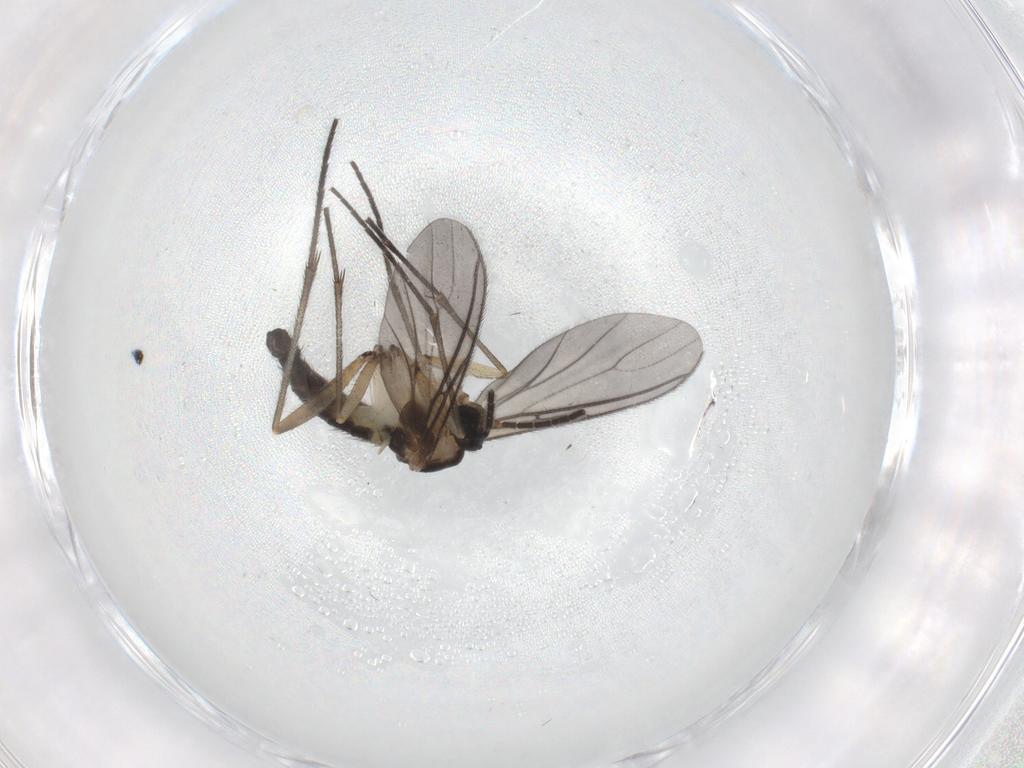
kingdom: Animalia
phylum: Arthropoda
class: Insecta
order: Diptera
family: Sciaridae
